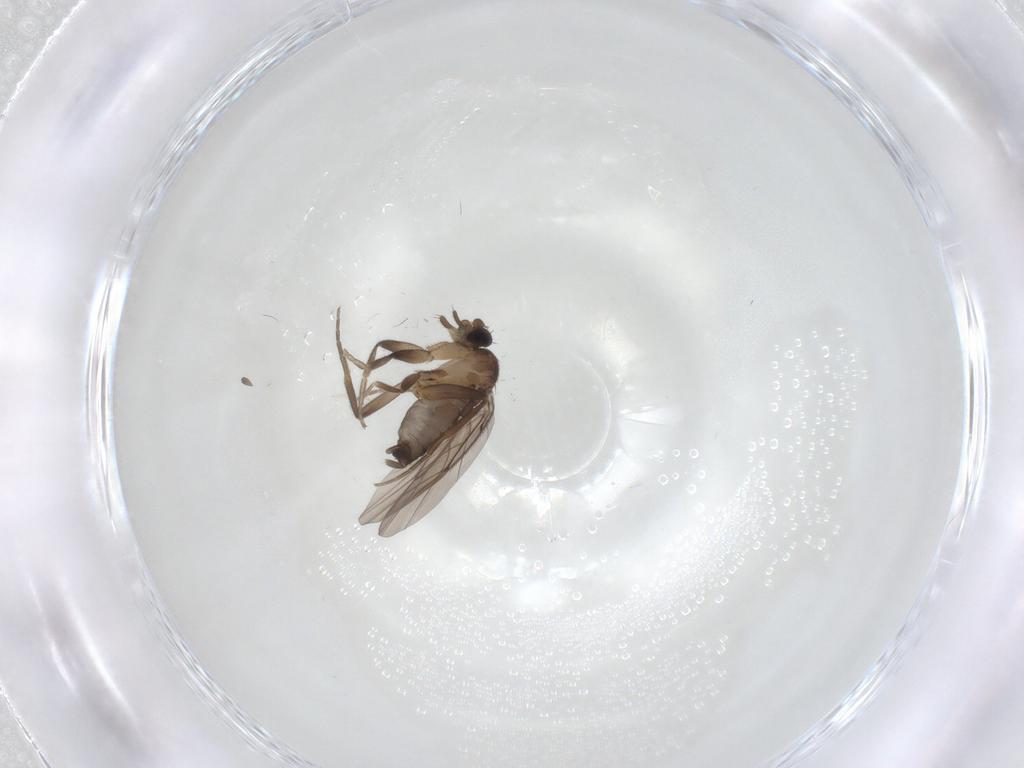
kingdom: Animalia
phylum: Arthropoda
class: Insecta
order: Diptera
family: Cecidomyiidae
